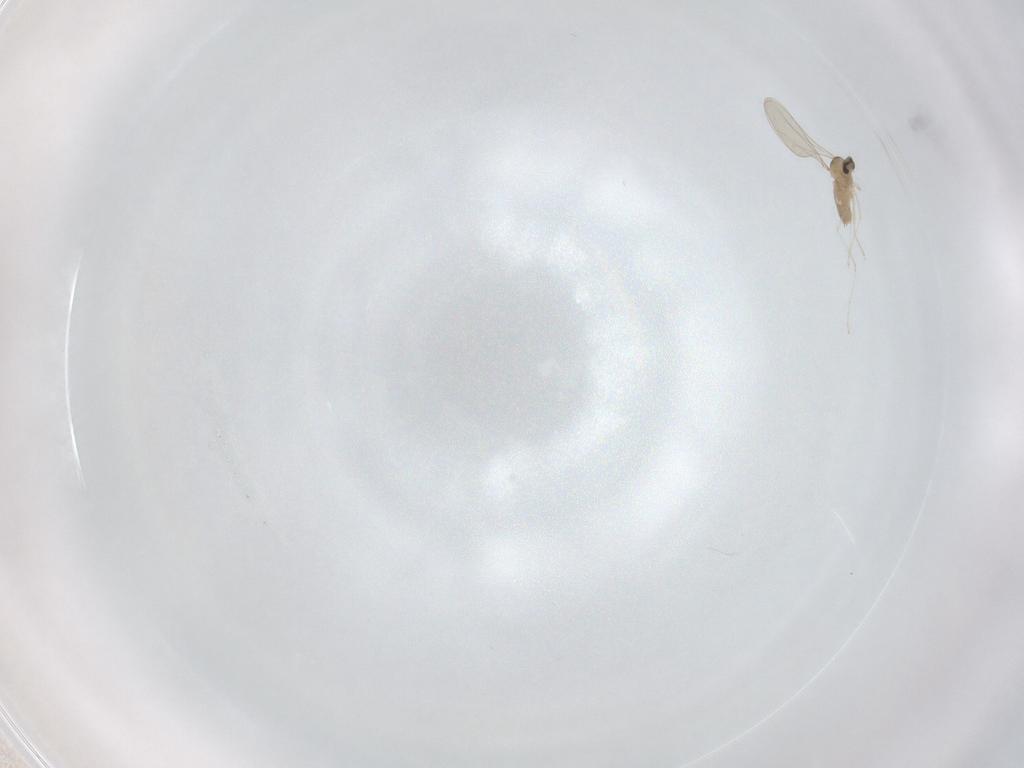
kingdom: Animalia
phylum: Arthropoda
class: Insecta
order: Diptera
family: Cecidomyiidae
